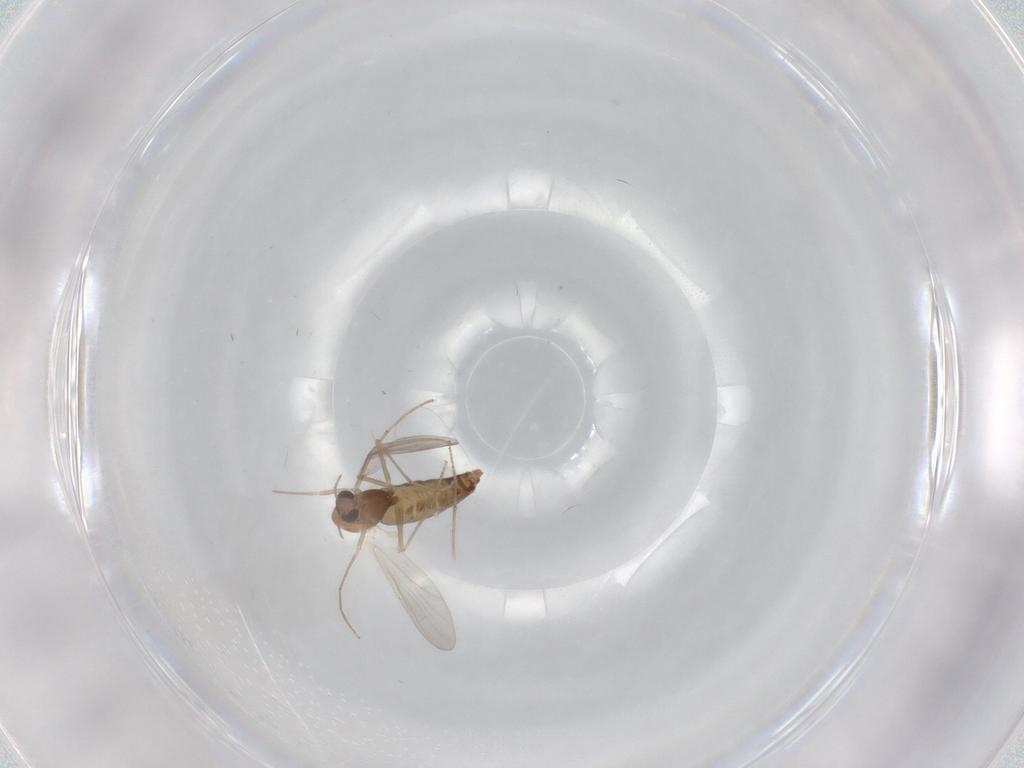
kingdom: Animalia
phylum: Arthropoda
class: Insecta
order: Diptera
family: Chironomidae
